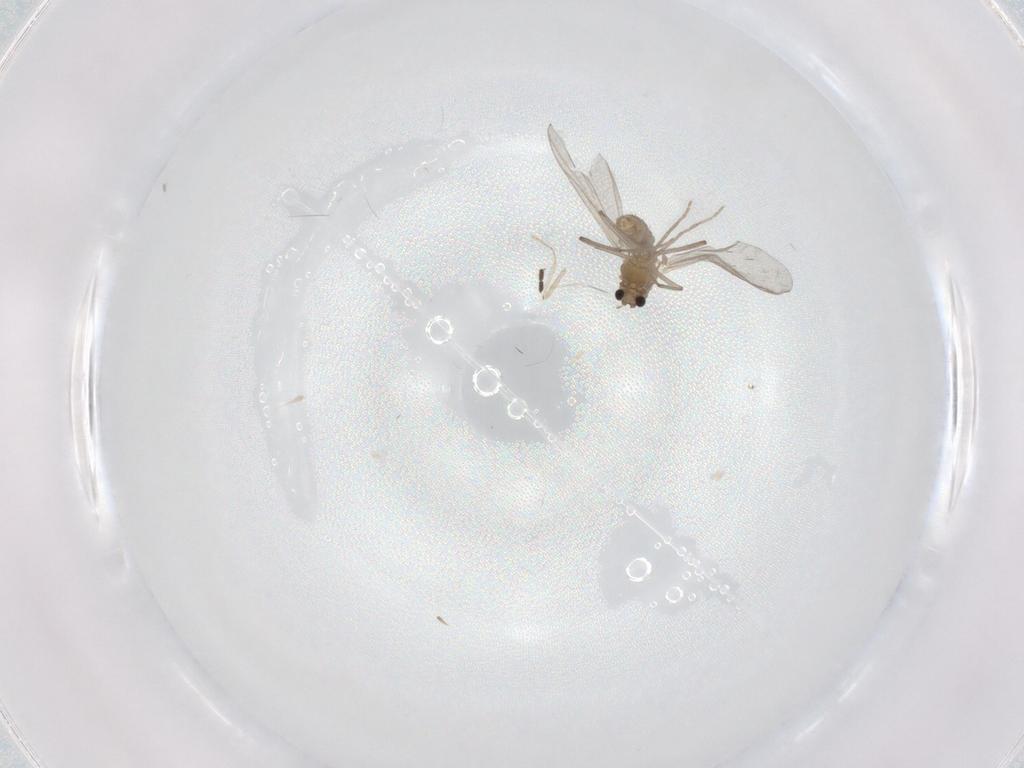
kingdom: Animalia
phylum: Arthropoda
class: Insecta
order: Diptera
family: Chironomidae
